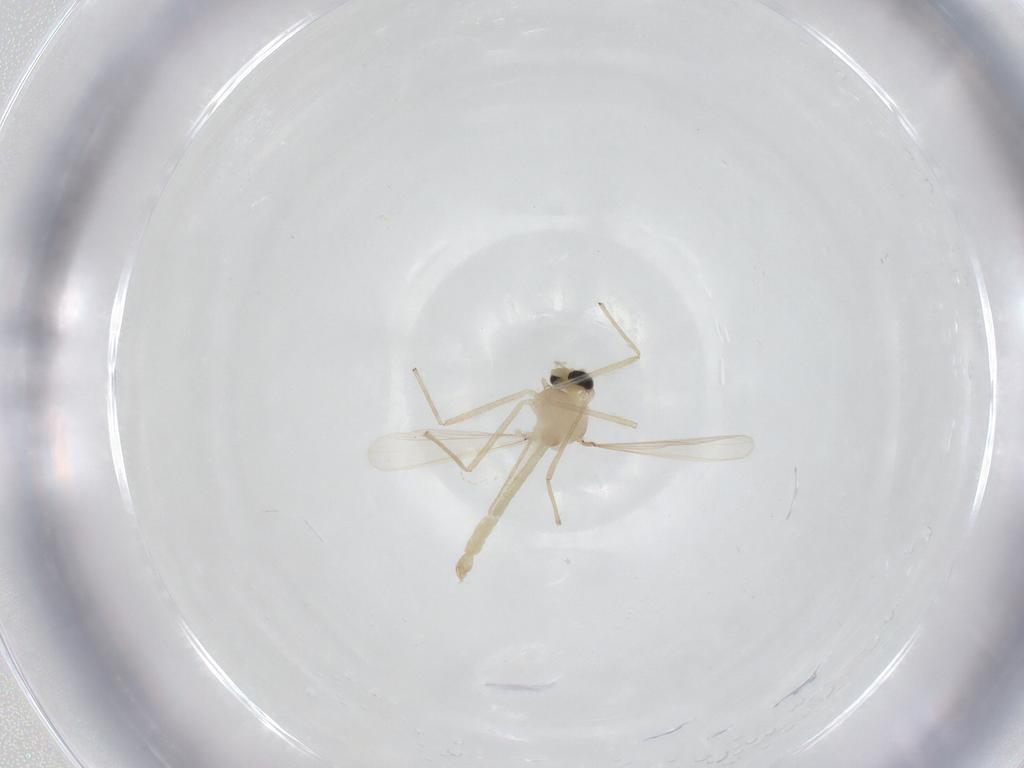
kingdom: Animalia
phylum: Arthropoda
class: Insecta
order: Diptera
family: Chironomidae
